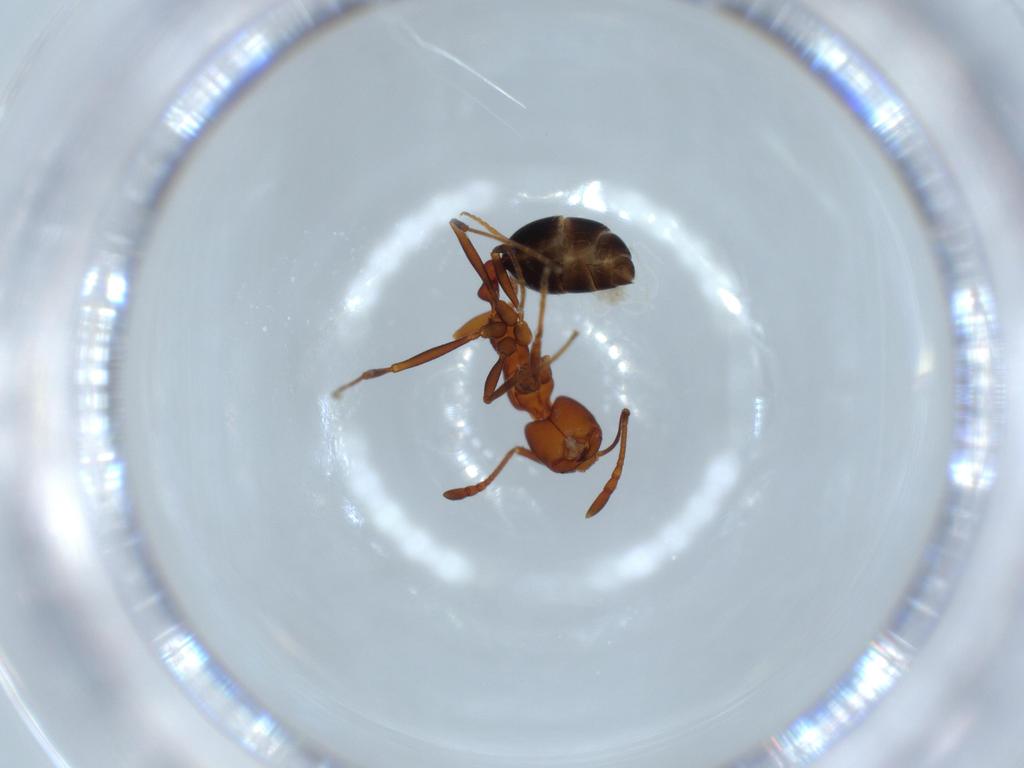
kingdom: Animalia
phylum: Arthropoda
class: Insecta
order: Hymenoptera
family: Formicidae
